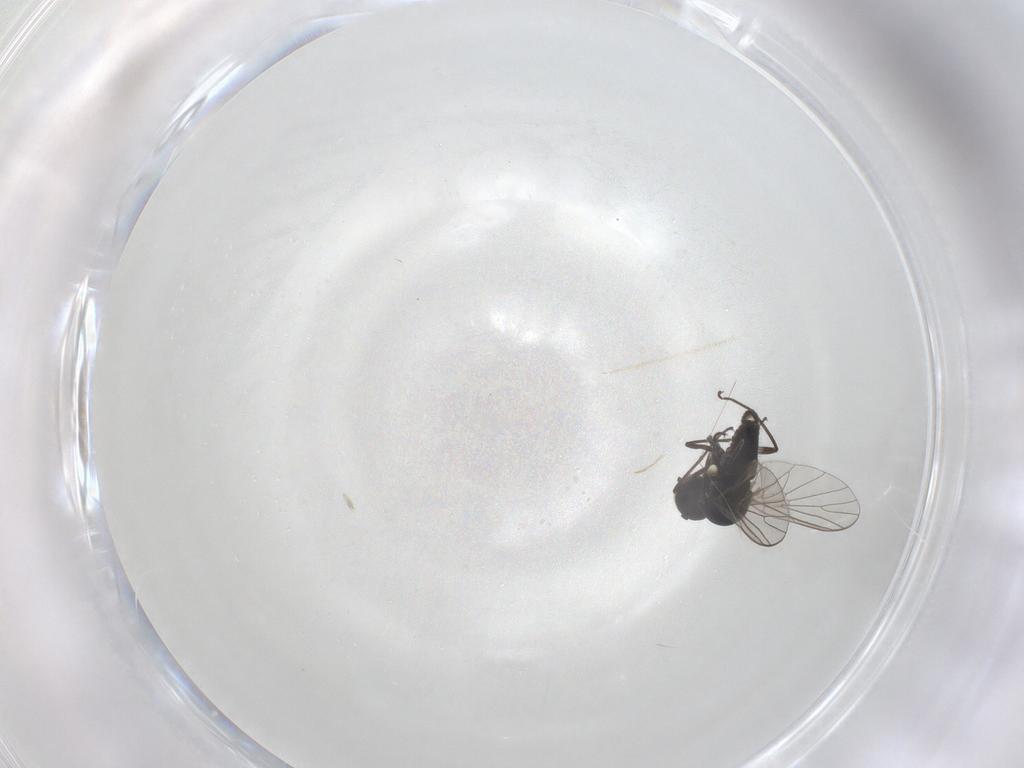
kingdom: Animalia
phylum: Arthropoda
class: Insecta
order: Diptera
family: Bombyliidae
